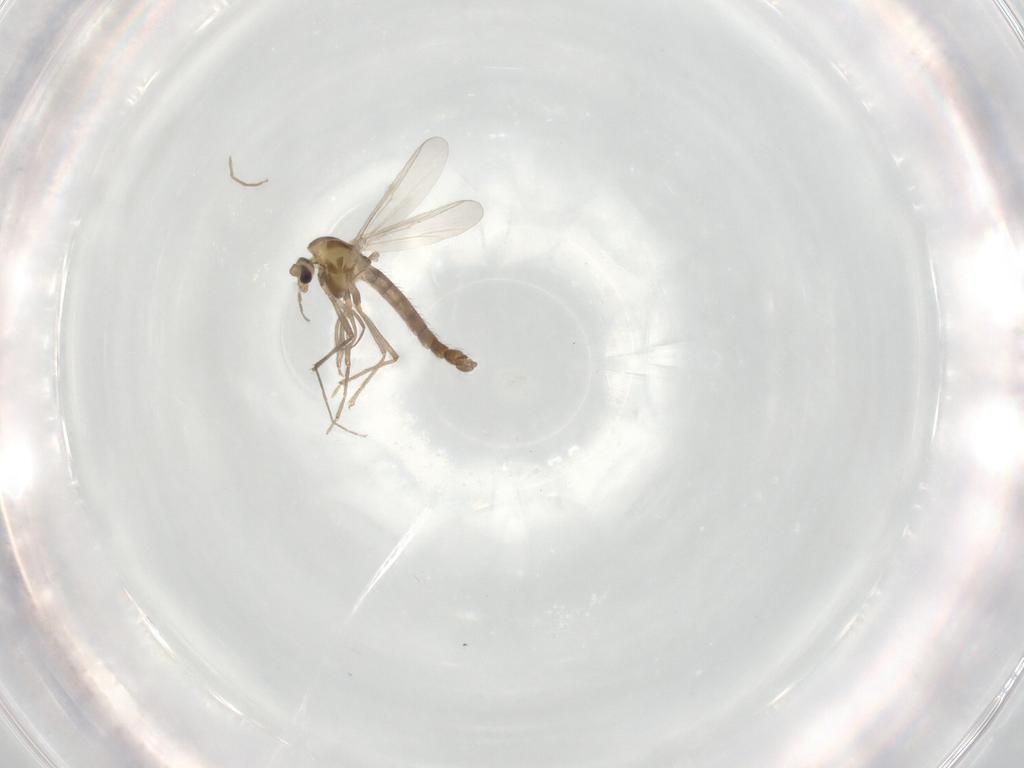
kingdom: Animalia
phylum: Arthropoda
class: Insecta
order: Diptera
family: Chironomidae
